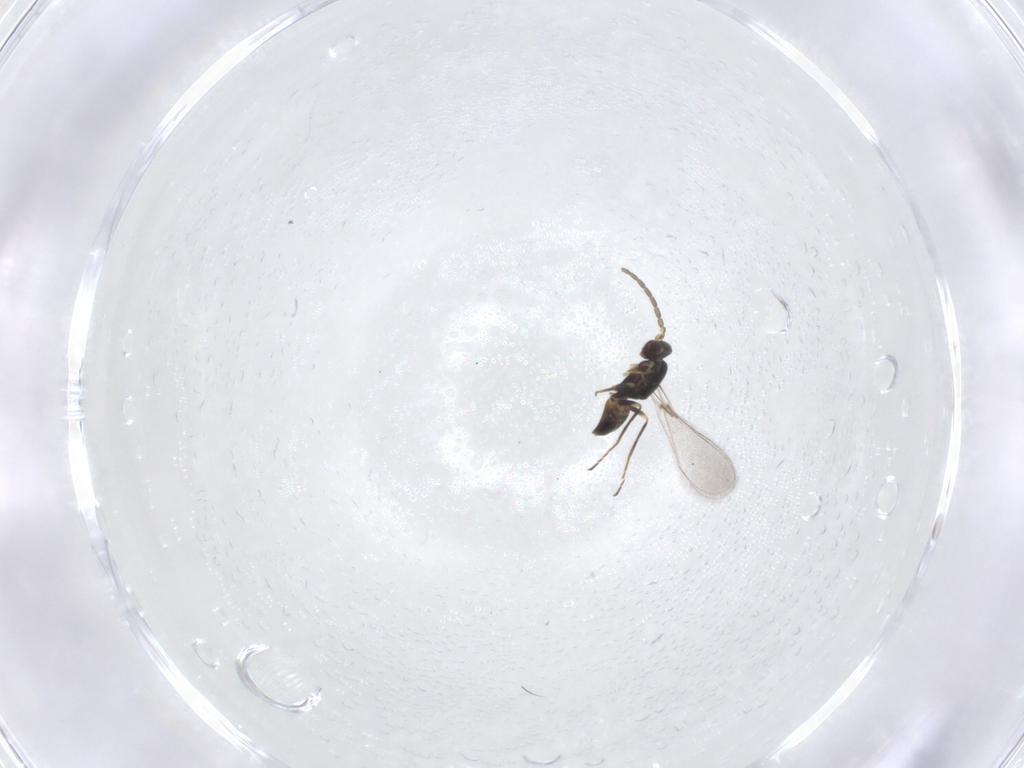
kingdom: Animalia
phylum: Arthropoda
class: Insecta
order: Hymenoptera
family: Mymaridae
